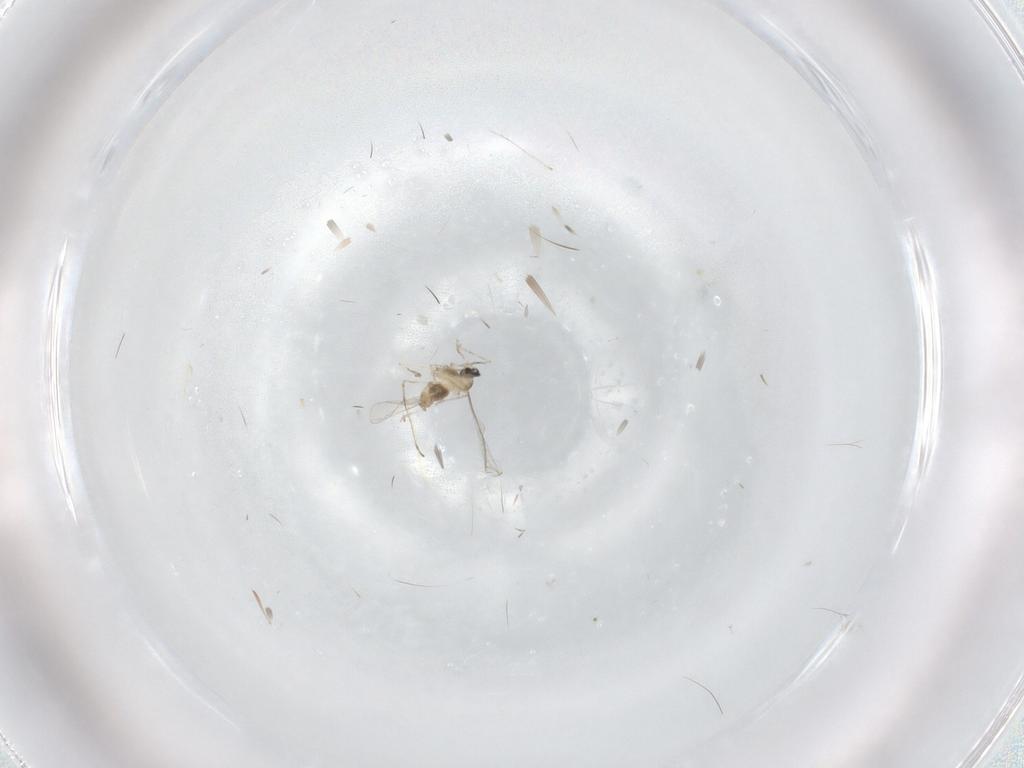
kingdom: Animalia
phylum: Arthropoda
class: Insecta
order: Diptera
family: Cecidomyiidae
